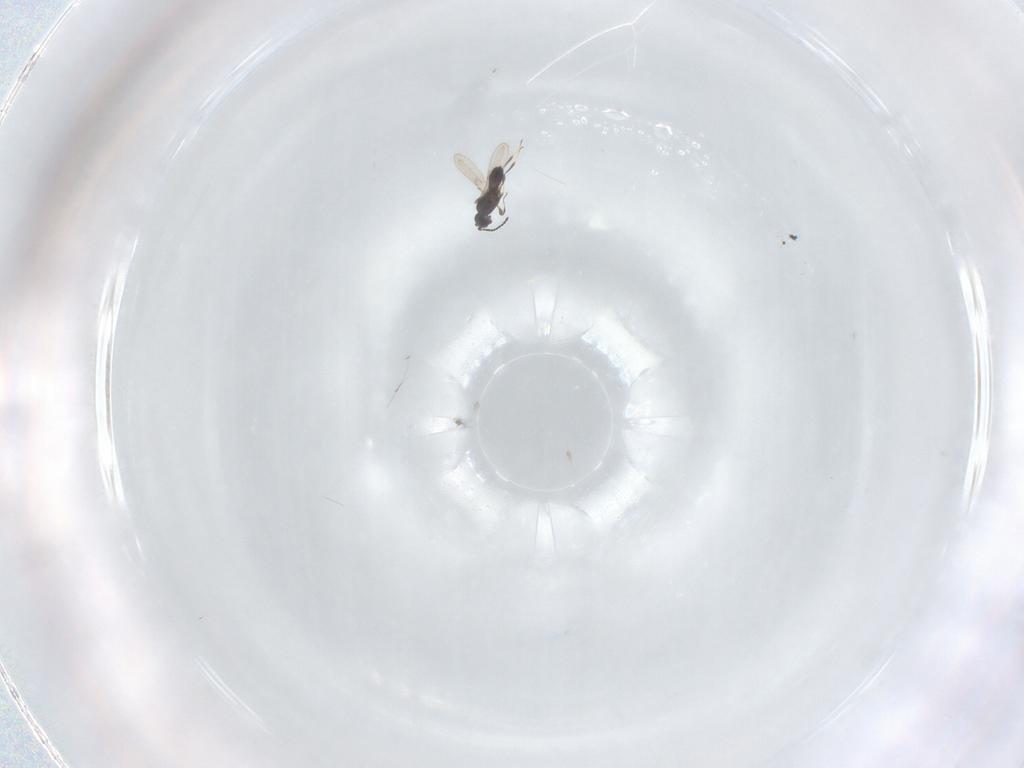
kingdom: Animalia
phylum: Arthropoda
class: Insecta
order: Hymenoptera
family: Scelionidae
